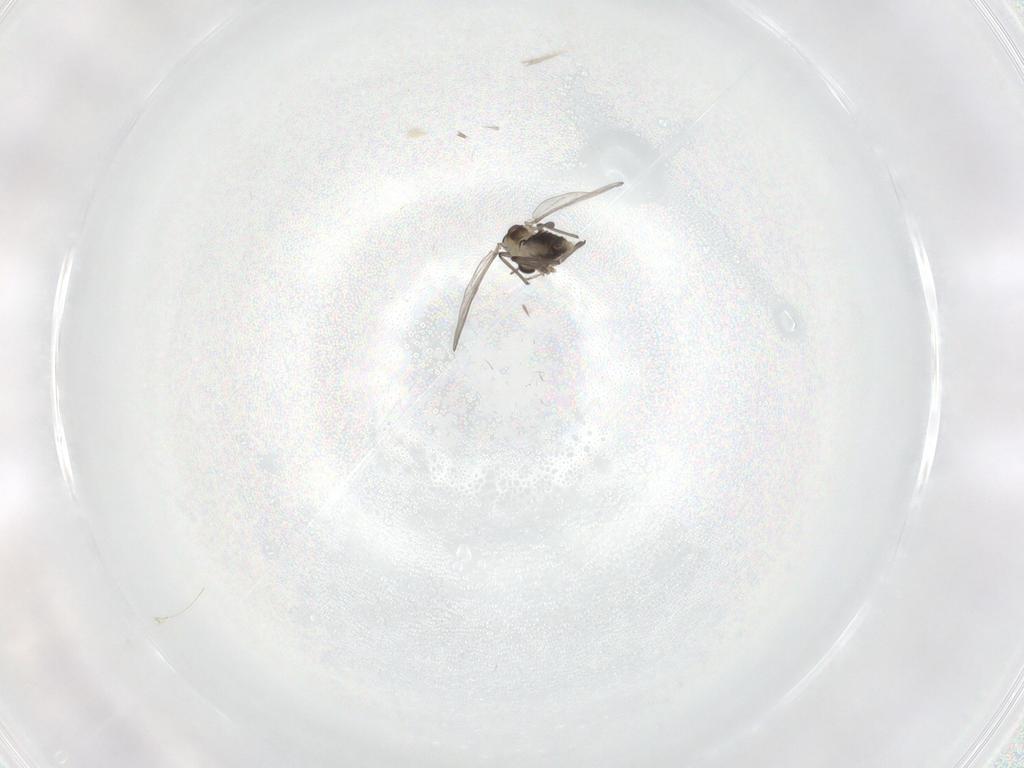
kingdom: Animalia
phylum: Arthropoda
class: Insecta
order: Diptera
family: Chironomidae
